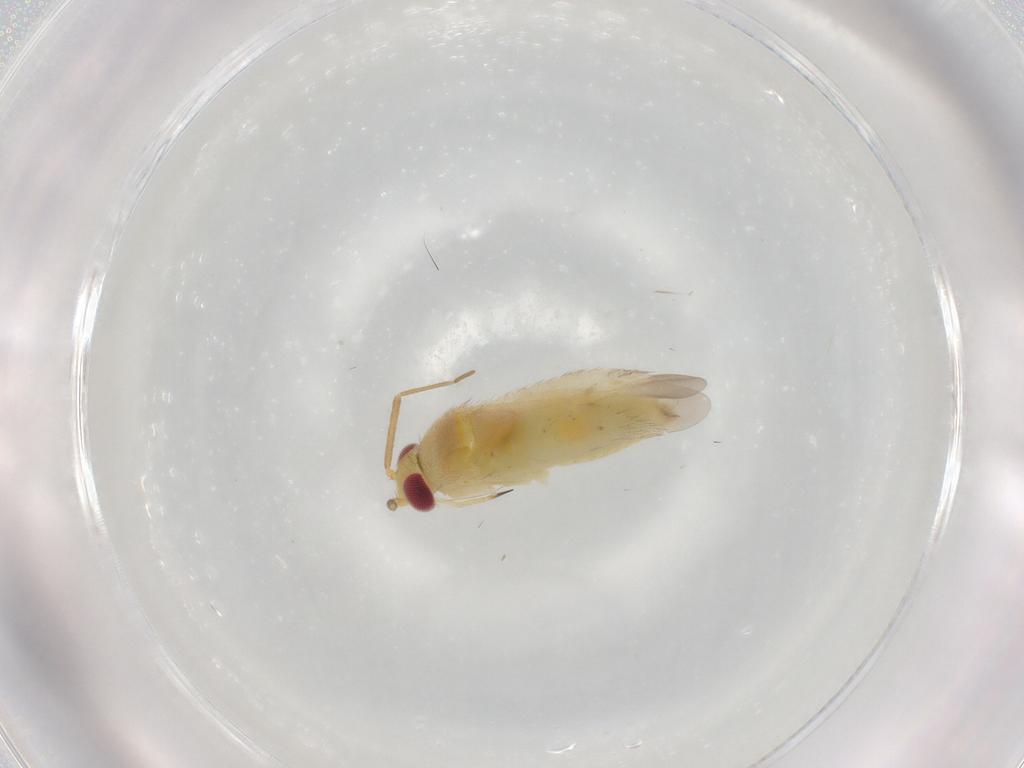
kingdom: Animalia
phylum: Arthropoda
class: Insecta
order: Hemiptera
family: Miridae
